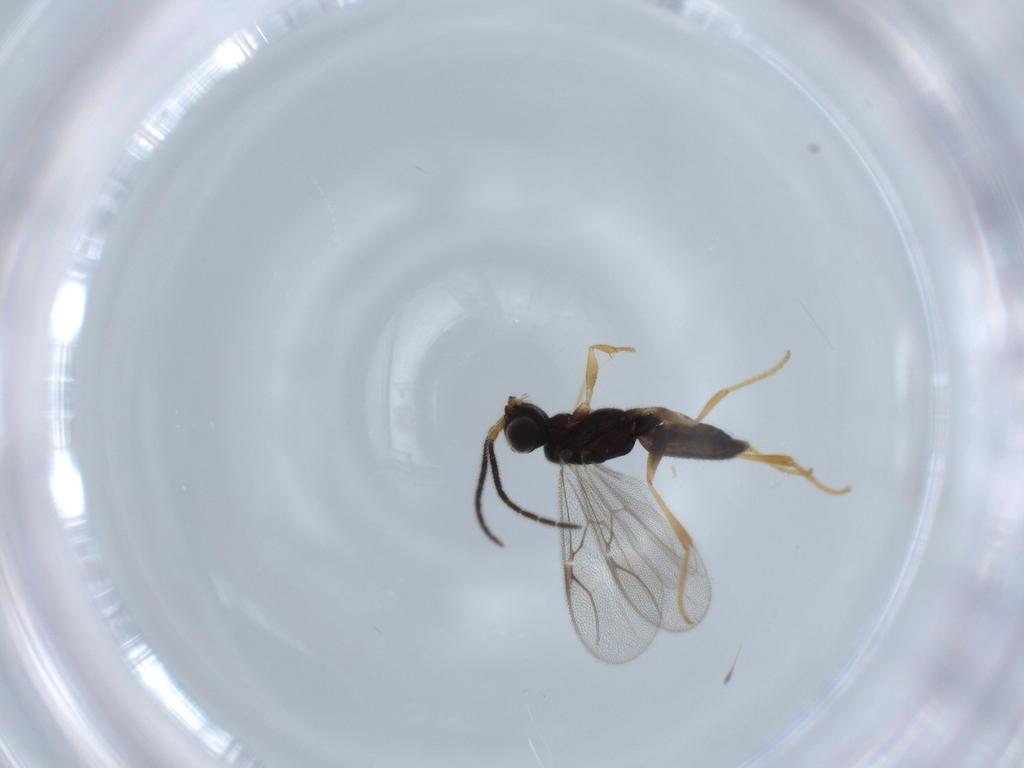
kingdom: Animalia
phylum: Arthropoda
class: Insecta
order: Hymenoptera
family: Dryinidae
